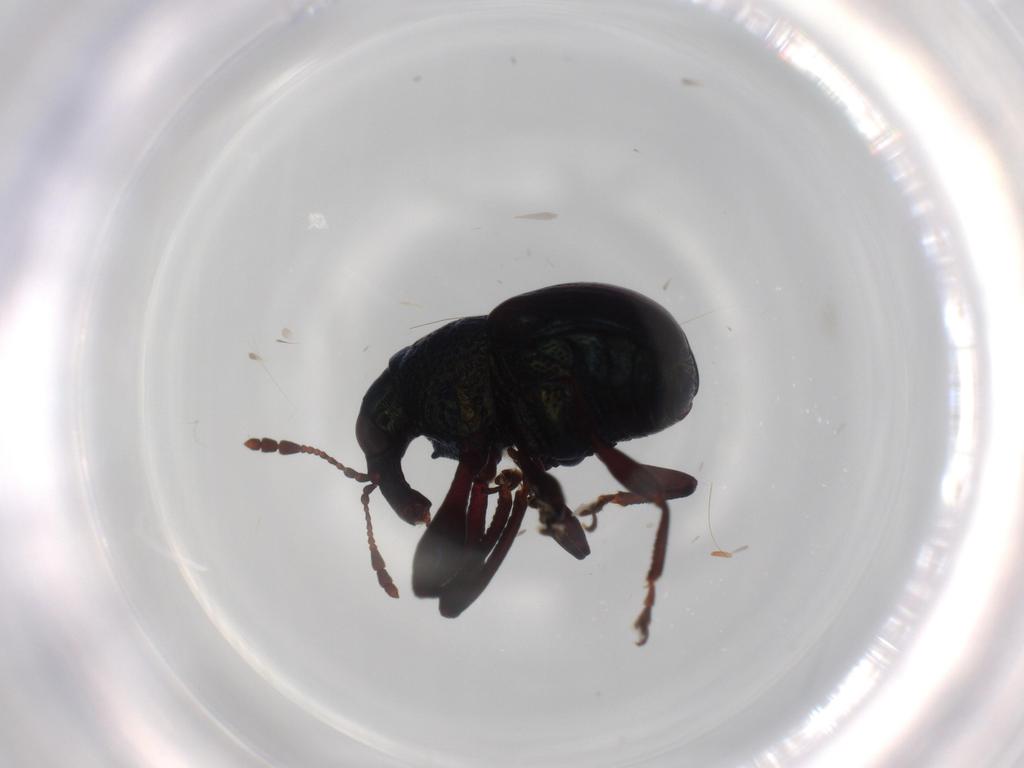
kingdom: Animalia
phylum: Arthropoda
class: Insecta
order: Coleoptera
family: Attelabidae
